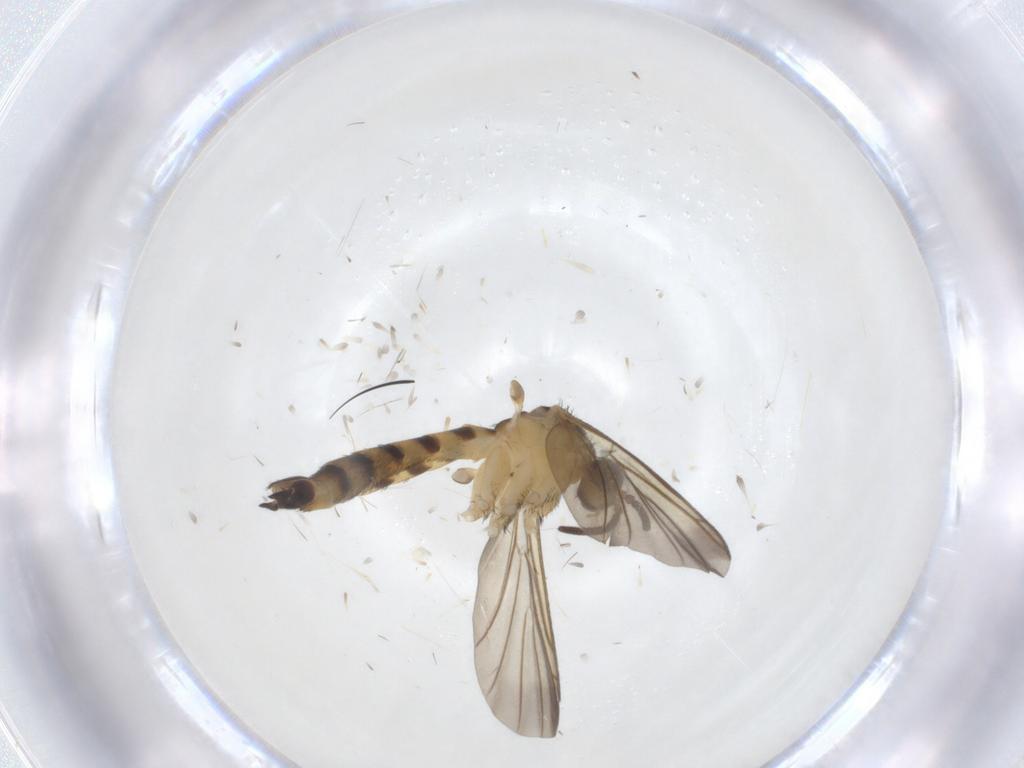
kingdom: Animalia
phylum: Arthropoda
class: Insecta
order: Diptera
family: Keroplatidae
